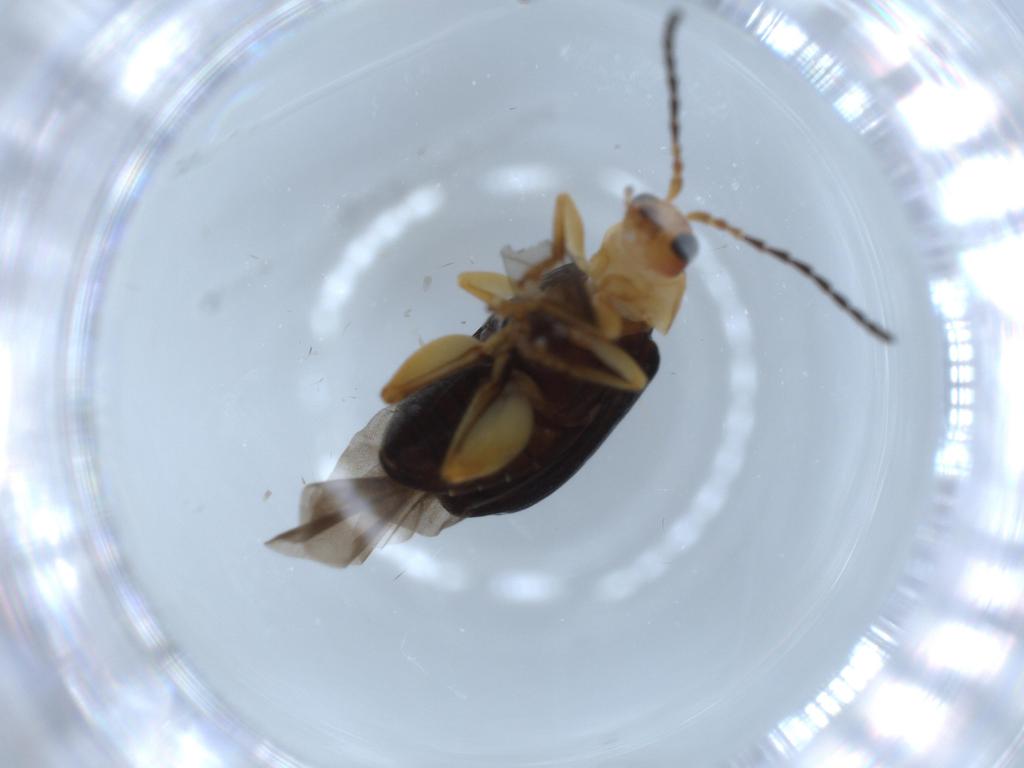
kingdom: Animalia
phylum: Arthropoda
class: Insecta
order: Coleoptera
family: Chrysomelidae
